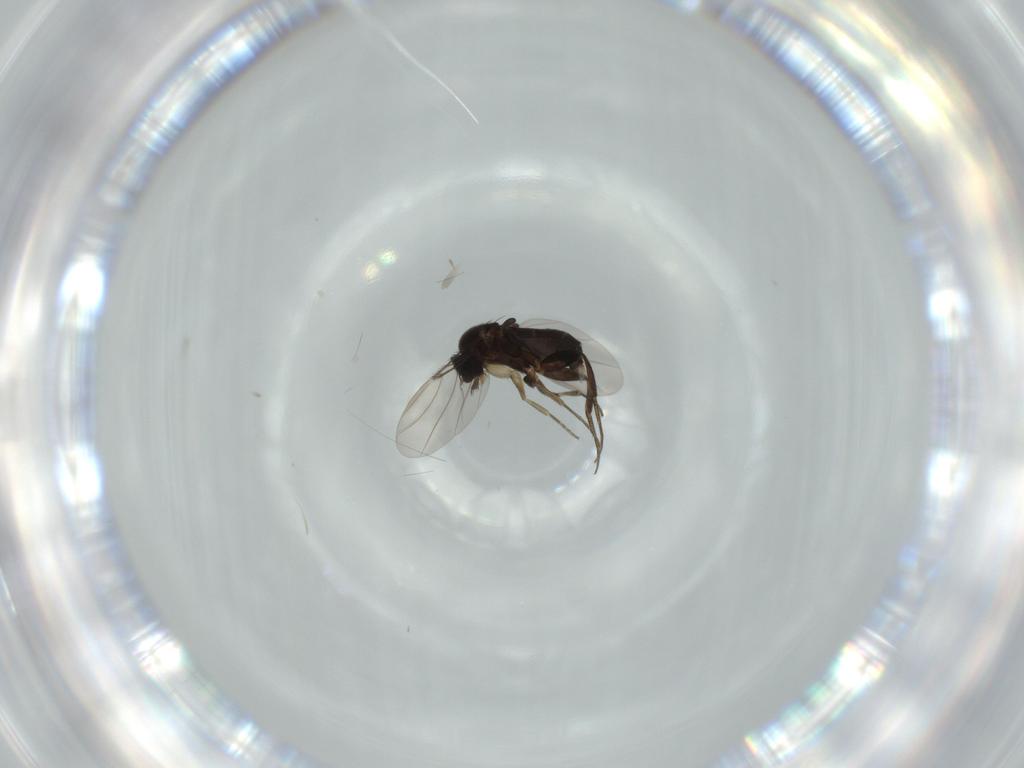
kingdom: Animalia
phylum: Arthropoda
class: Insecta
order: Diptera
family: Phoridae
